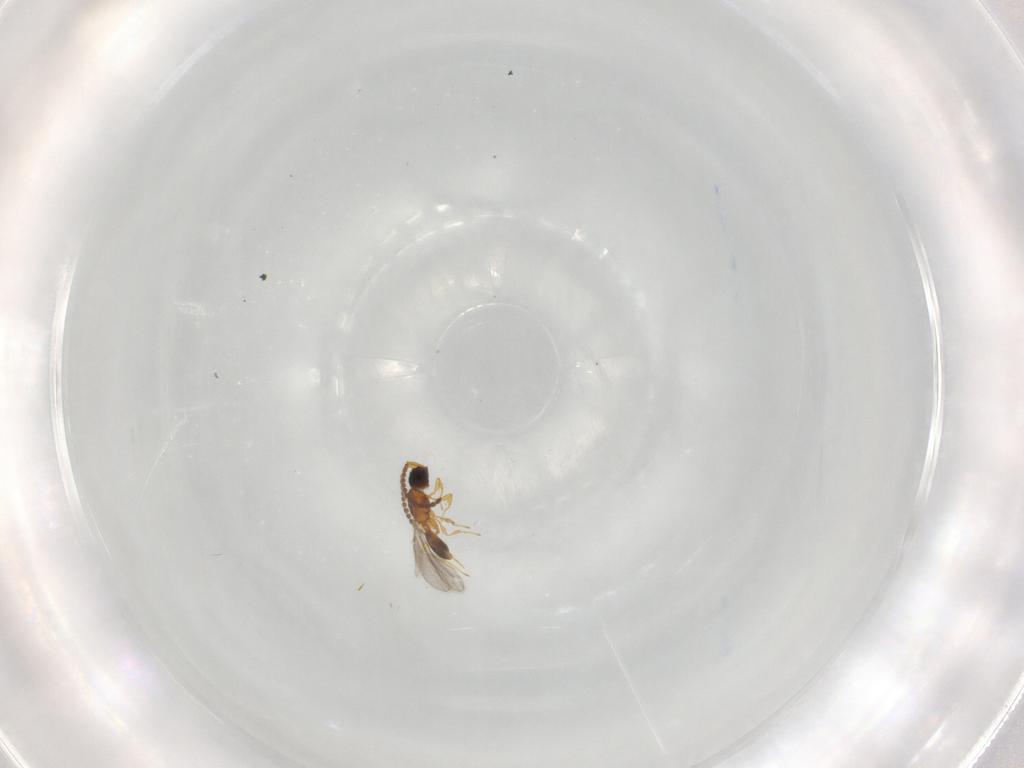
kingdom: Animalia
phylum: Arthropoda
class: Insecta
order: Hymenoptera
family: Diapriidae
